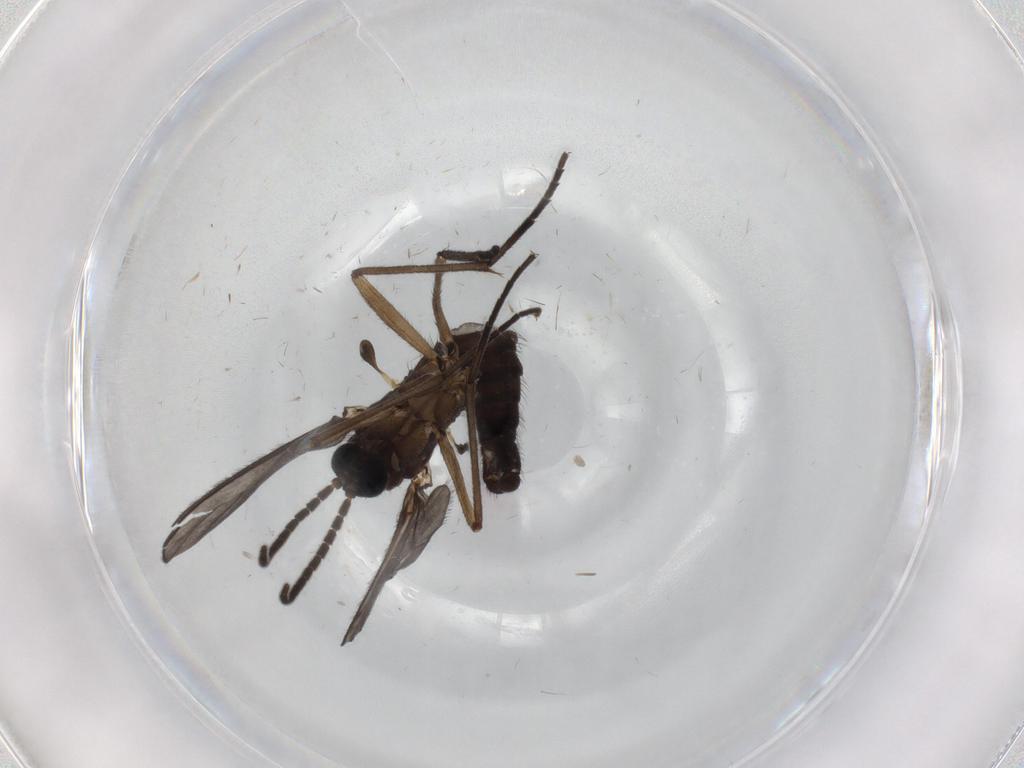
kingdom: Animalia
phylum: Arthropoda
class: Insecta
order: Diptera
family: Sciaridae
